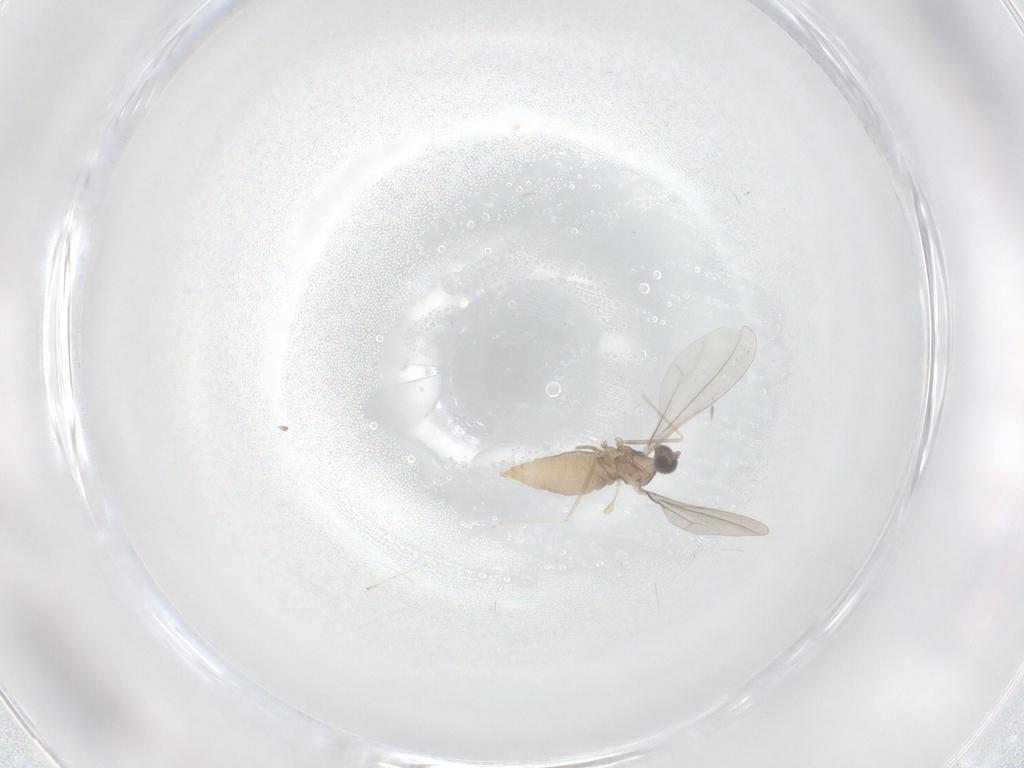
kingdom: Animalia
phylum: Arthropoda
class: Insecta
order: Diptera
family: Cecidomyiidae
